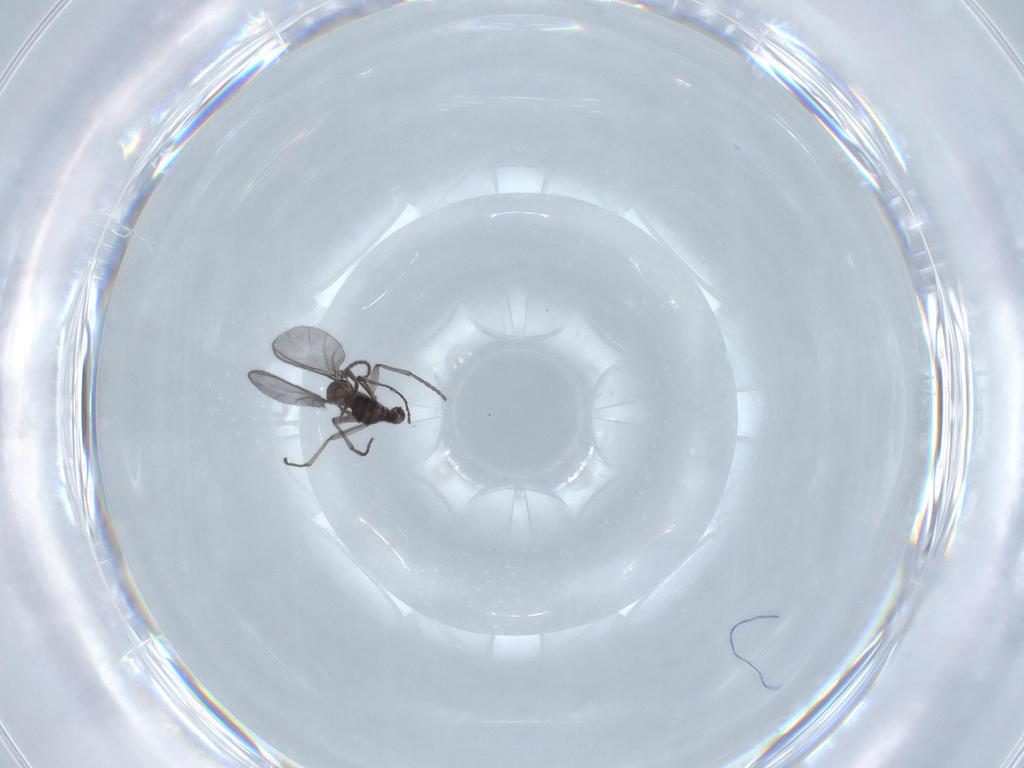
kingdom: Animalia
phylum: Arthropoda
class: Insecta
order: Diptera
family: Sciaridae
